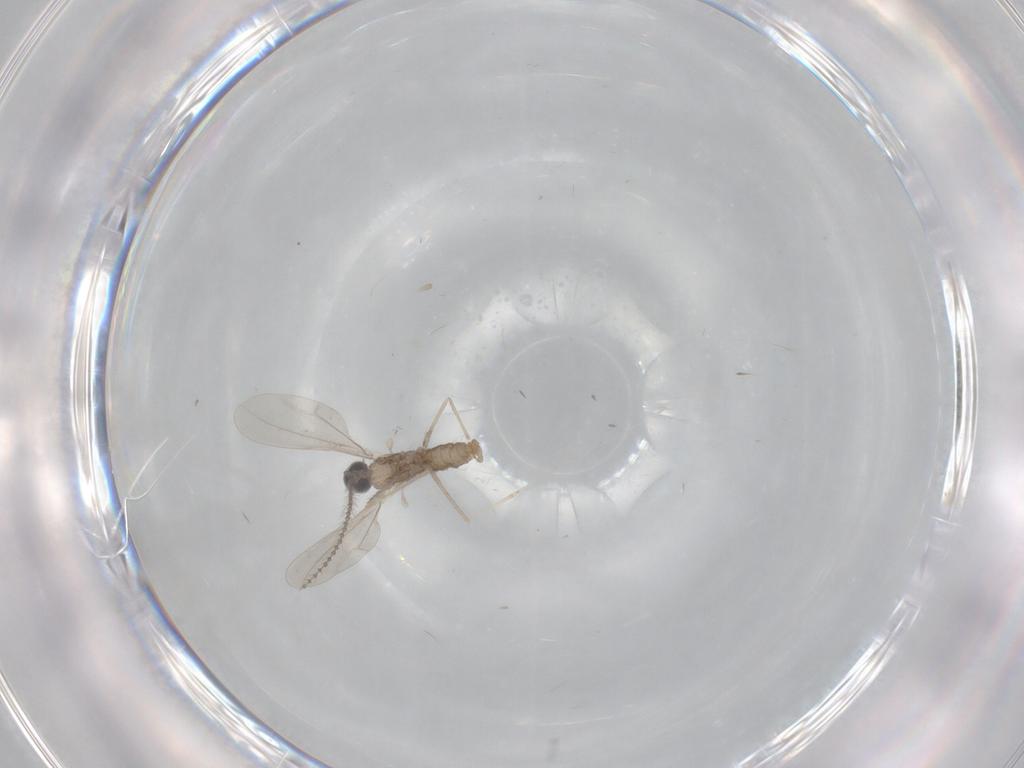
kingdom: Animalia
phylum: Arthropoda
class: Insecta
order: Diptera
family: Cecidomyiidae
